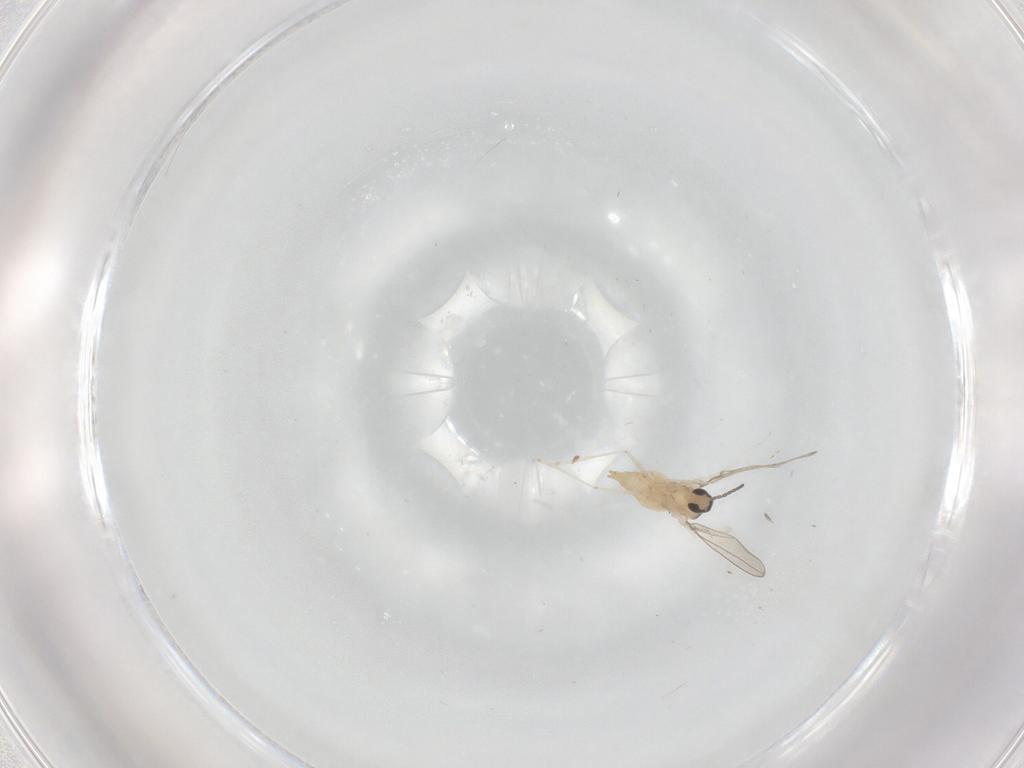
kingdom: Animalia
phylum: Arthropoda
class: Insecta
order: Diptera
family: Cecidomyiidae
